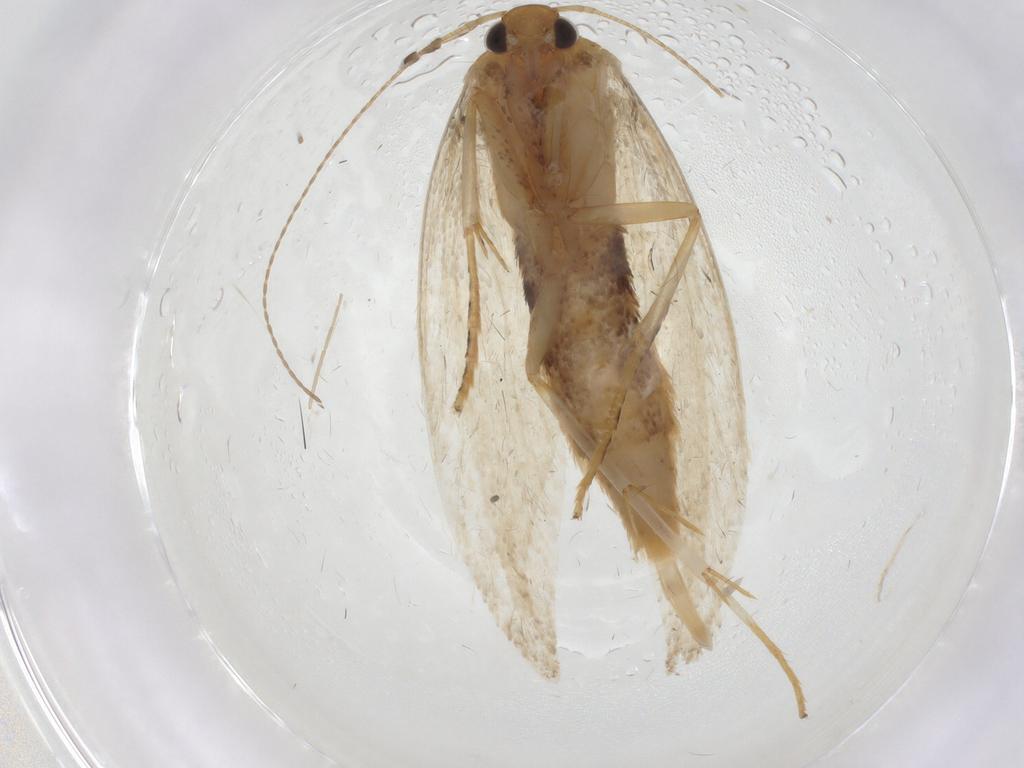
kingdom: Animalia
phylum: Arthropoda
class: Insecta
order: Lepidoptera
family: Oecophoridae
